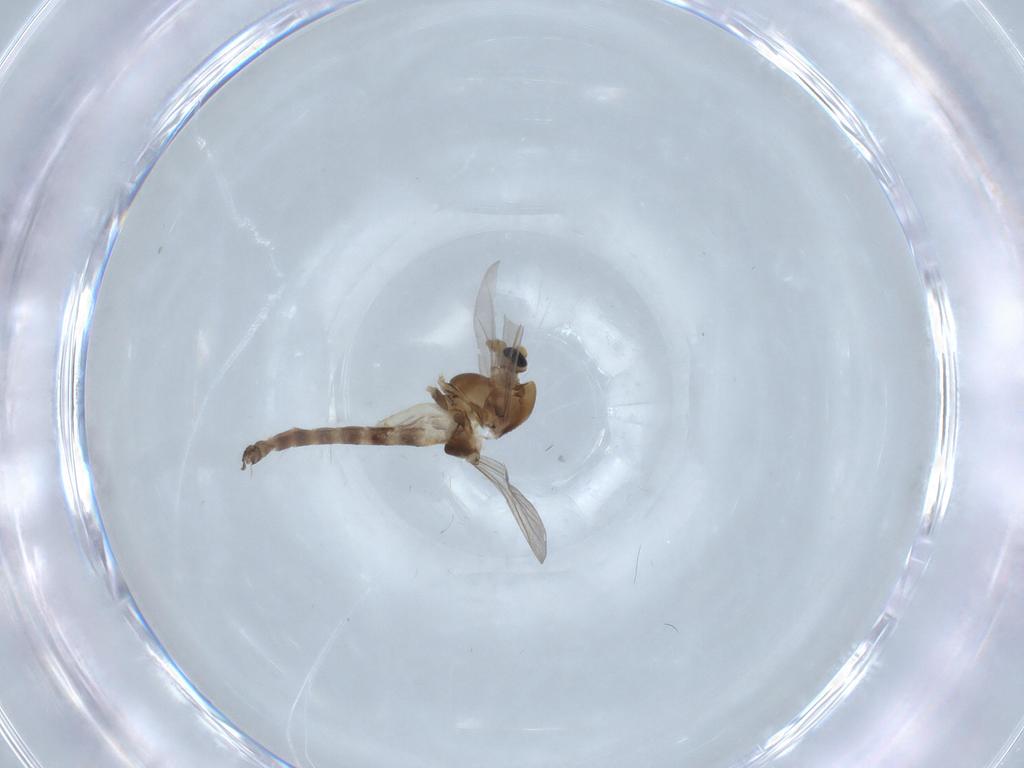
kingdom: Animalia
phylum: Arthropoda
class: Insecta
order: Diptera
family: Chironomidae
